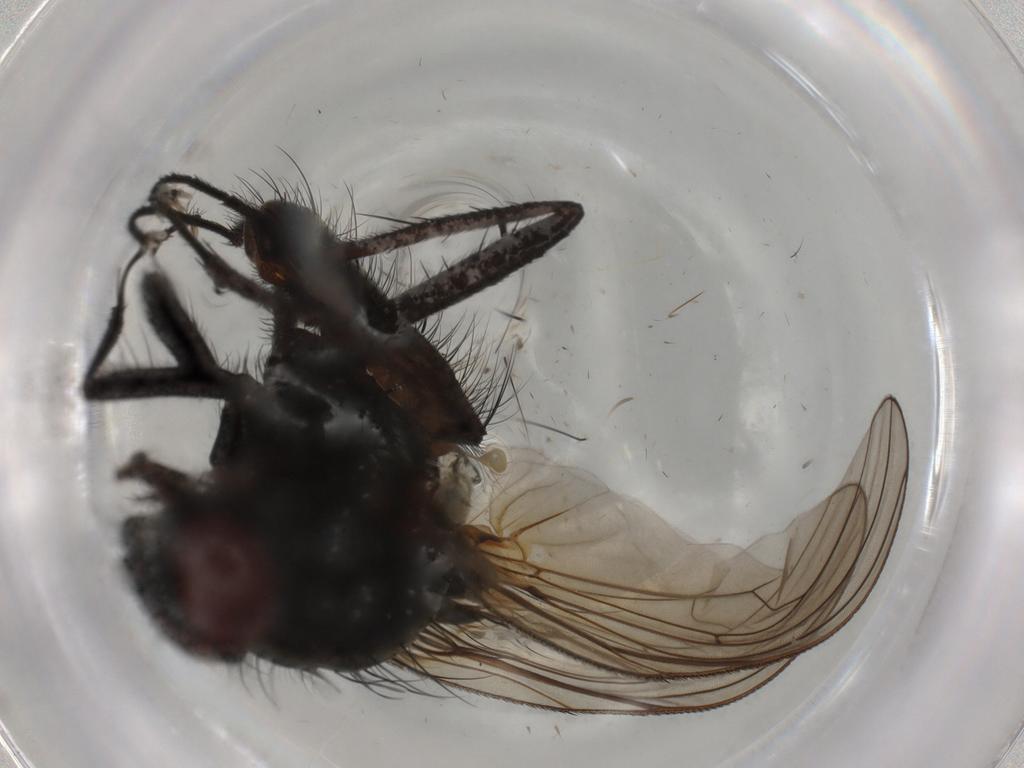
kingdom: Animalia
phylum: Arthropoda
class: Insecta
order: Diptera
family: Anthomyiidae
